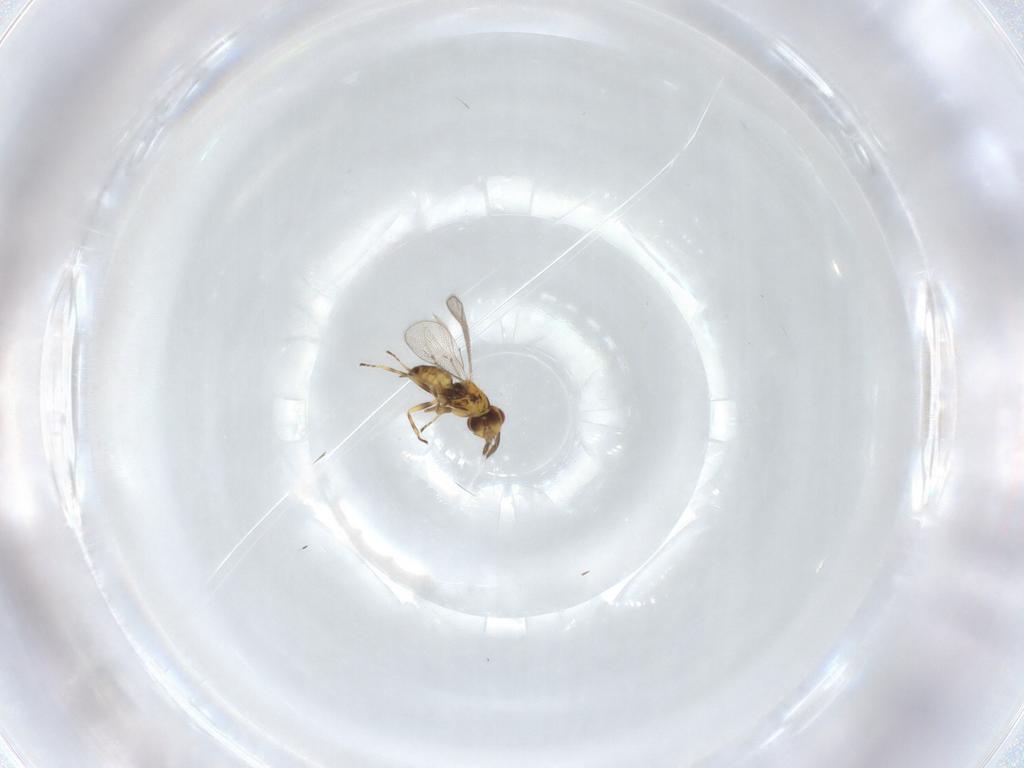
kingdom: Animalia
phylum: Arthropoda
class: Insecta
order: Hymenoptera
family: Eulophidae
